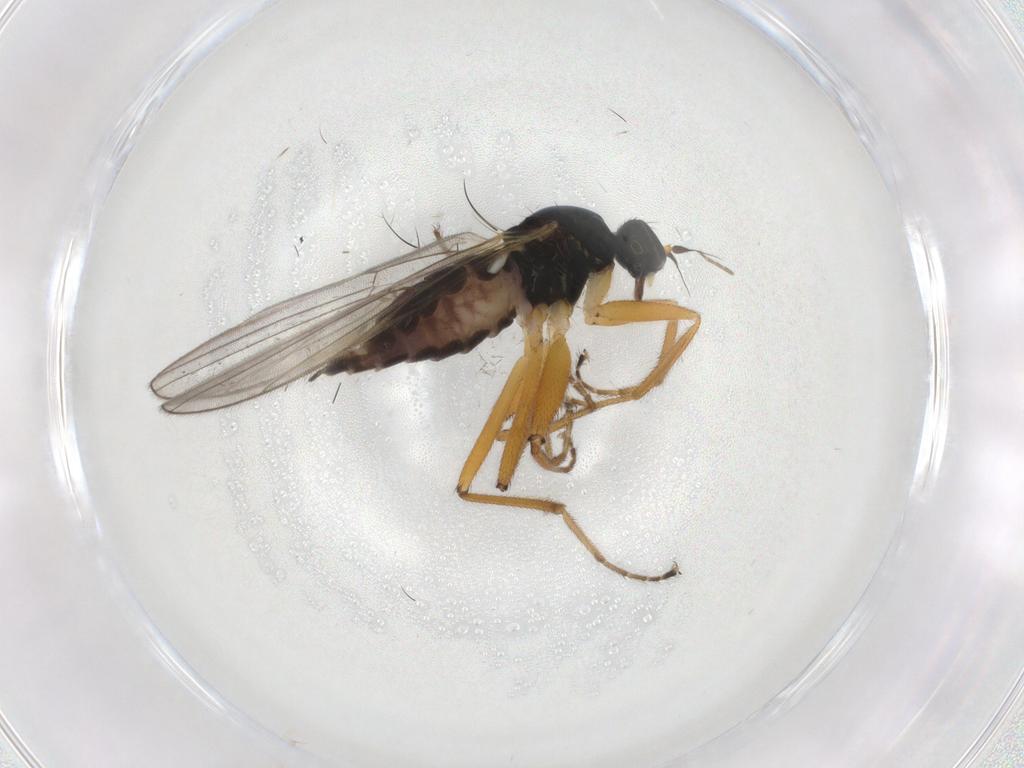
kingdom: Animalia
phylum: Arthropoda
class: Insecta
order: Diptera
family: Hybotidae
